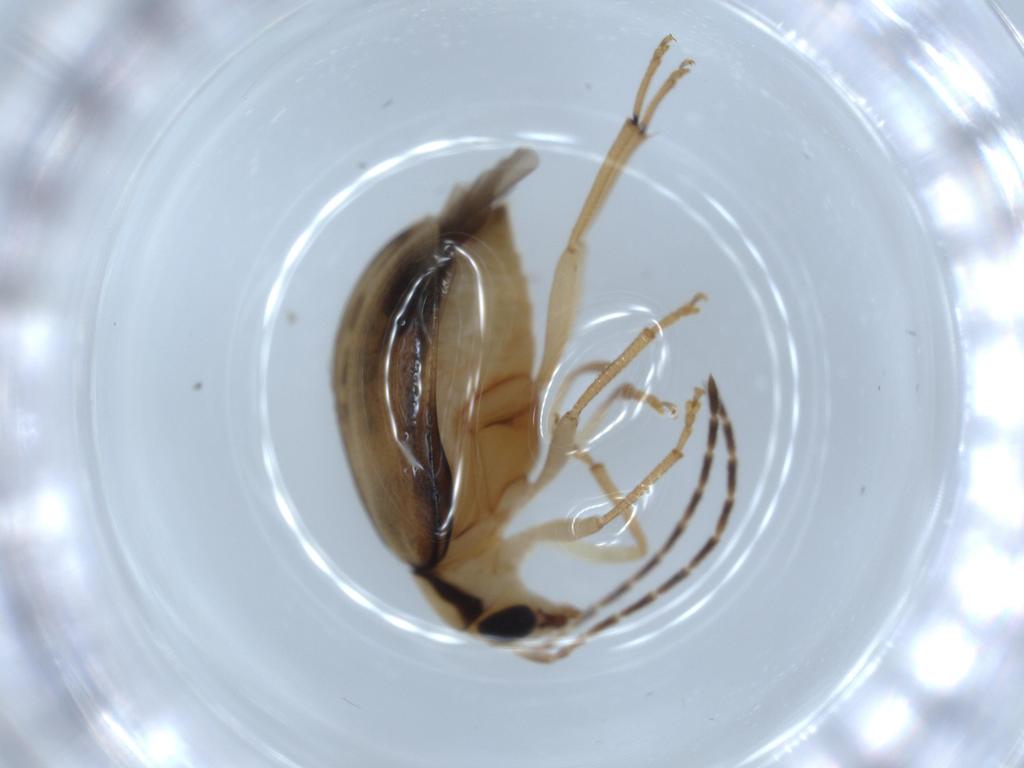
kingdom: Animalia
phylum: Arthropoda
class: Insecta
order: Coleoptera
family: Chrysomelidae
